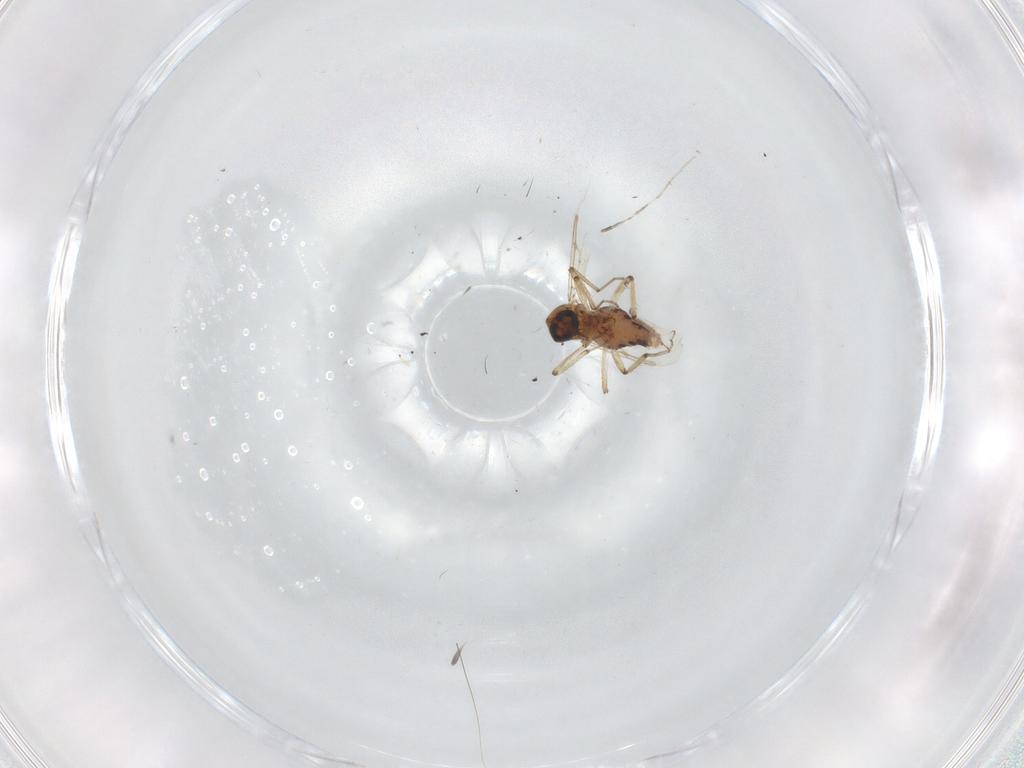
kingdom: Animalia
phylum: Arthropoda
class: Insecta
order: Diptera
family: Ceratopogonidae
